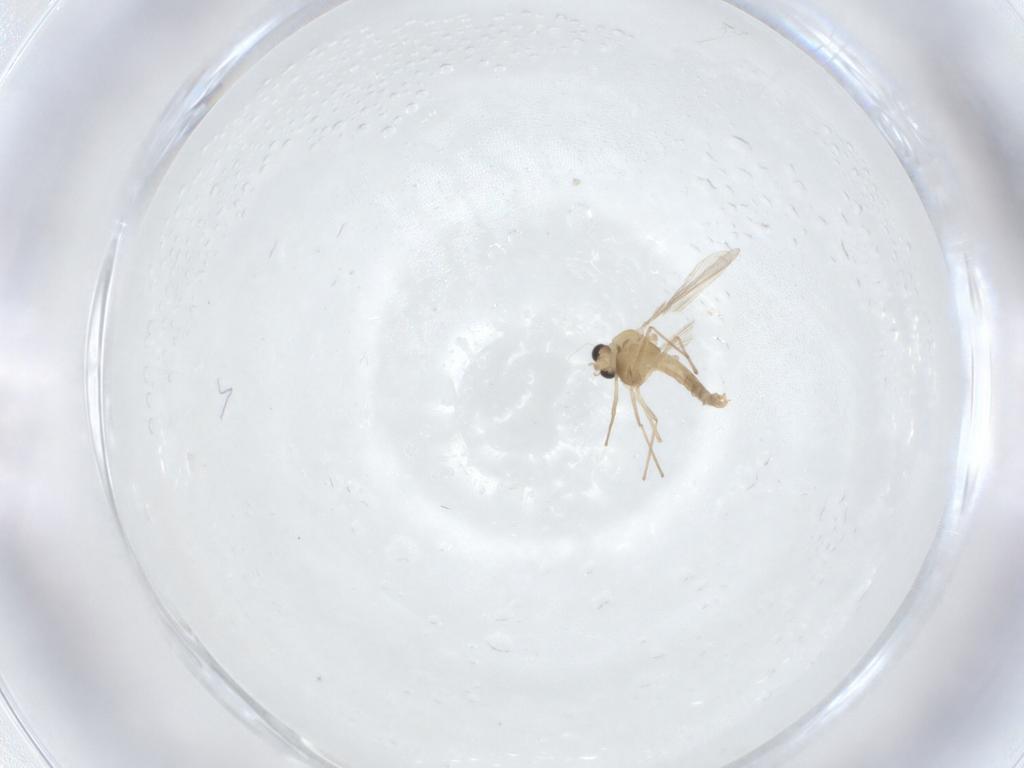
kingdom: Animalia
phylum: Arthropoda
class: Insecta
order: Diptera
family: Chironomidae
